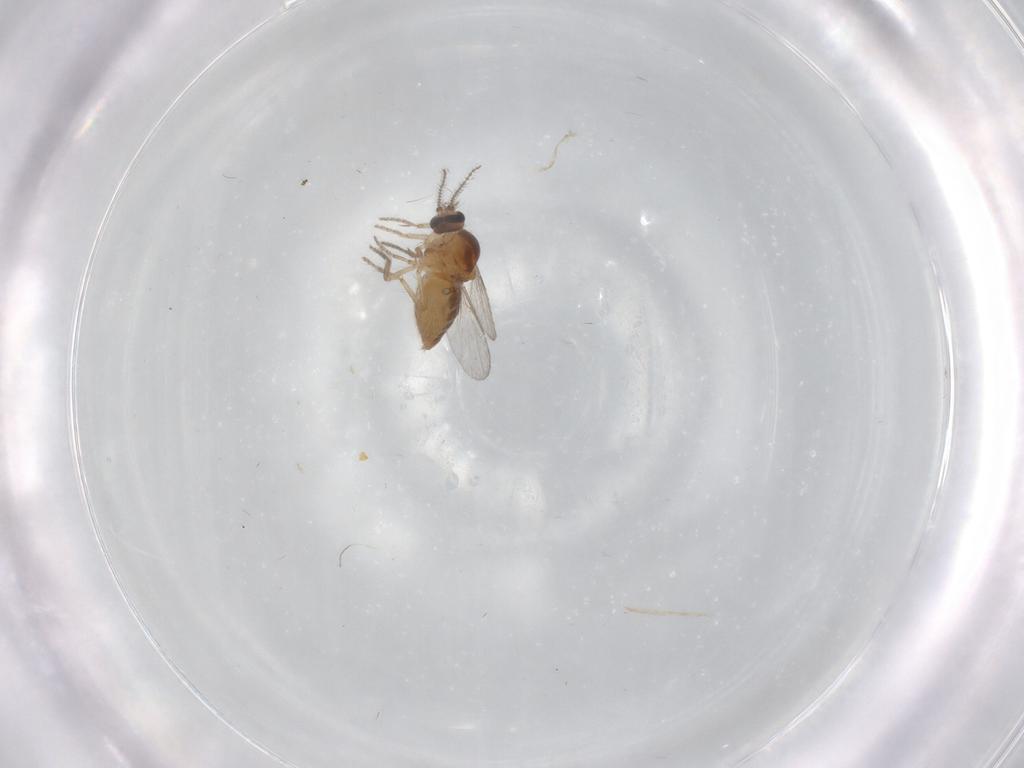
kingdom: Animalia
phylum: Arthropoda
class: Insecta
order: Diptera
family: Ceratopogonidae
